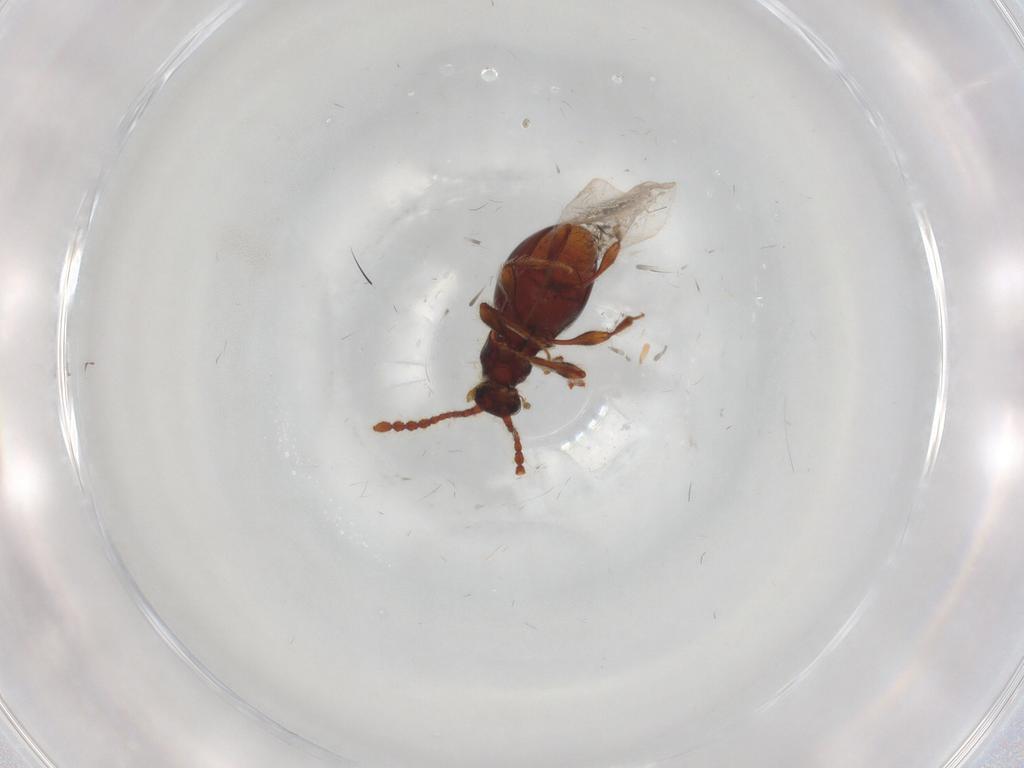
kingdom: Animalia
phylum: Arthropoda
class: Insecta
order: Coleoptera
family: Staphylinidae
